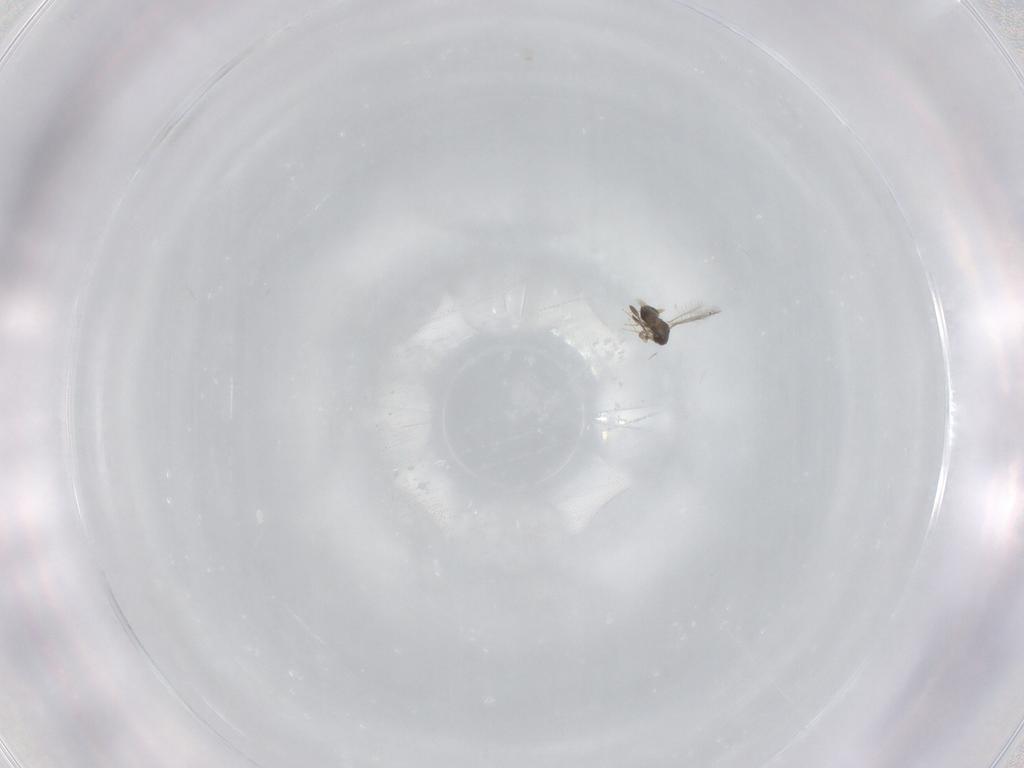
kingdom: Animalia
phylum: Arthropoda
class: Insecta
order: Hymenoptera
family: Mymaridae
